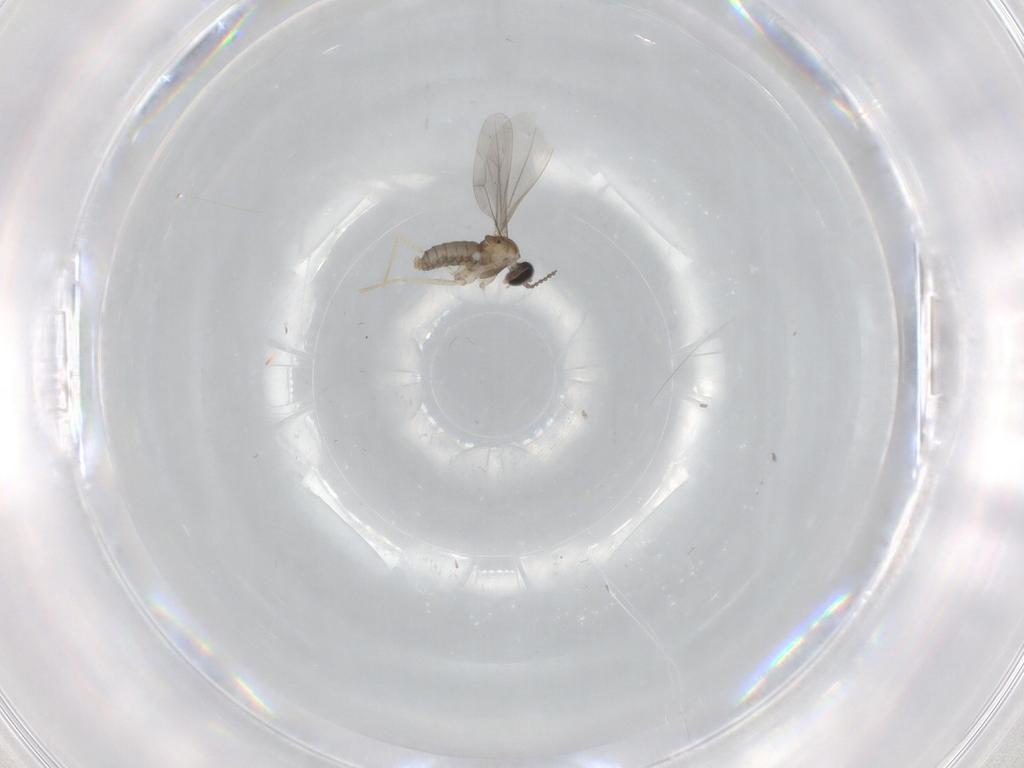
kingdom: Animalia
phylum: Arthropoda
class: Insecta
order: Diptera
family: Cecidomyiidae
